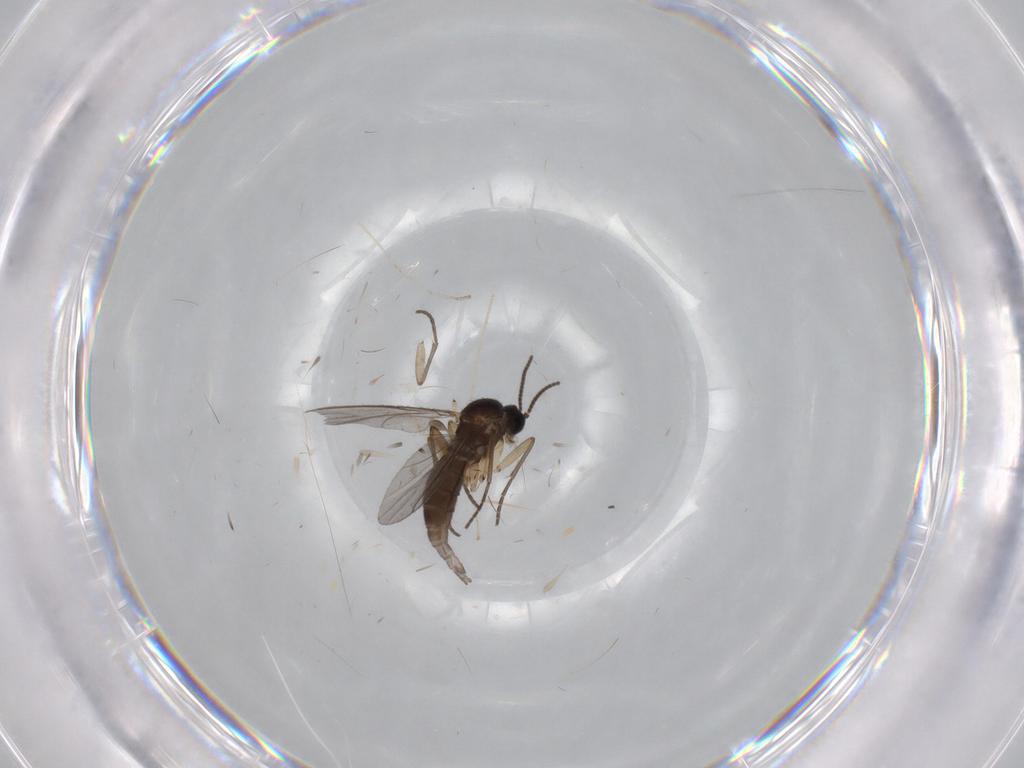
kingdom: Animalia
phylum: Arthropoda
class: Insecta
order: Diptera
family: Sciaridae
